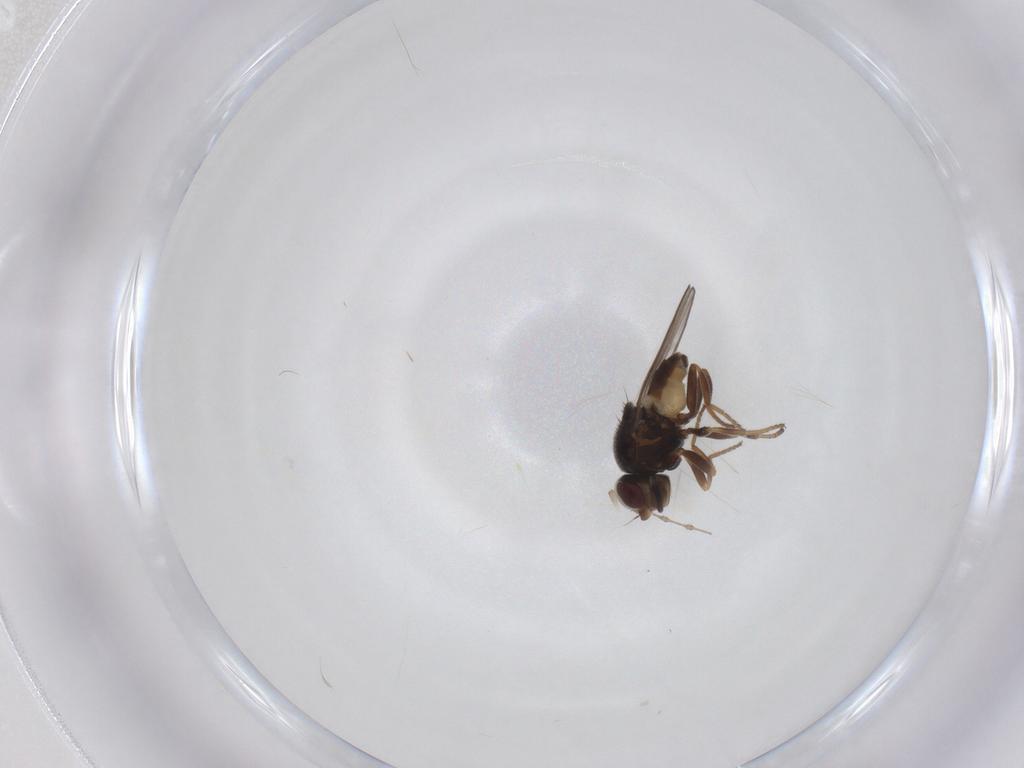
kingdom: Animalia
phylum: Arthropoda
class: Insecta
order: Diptera
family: Chloropidae
